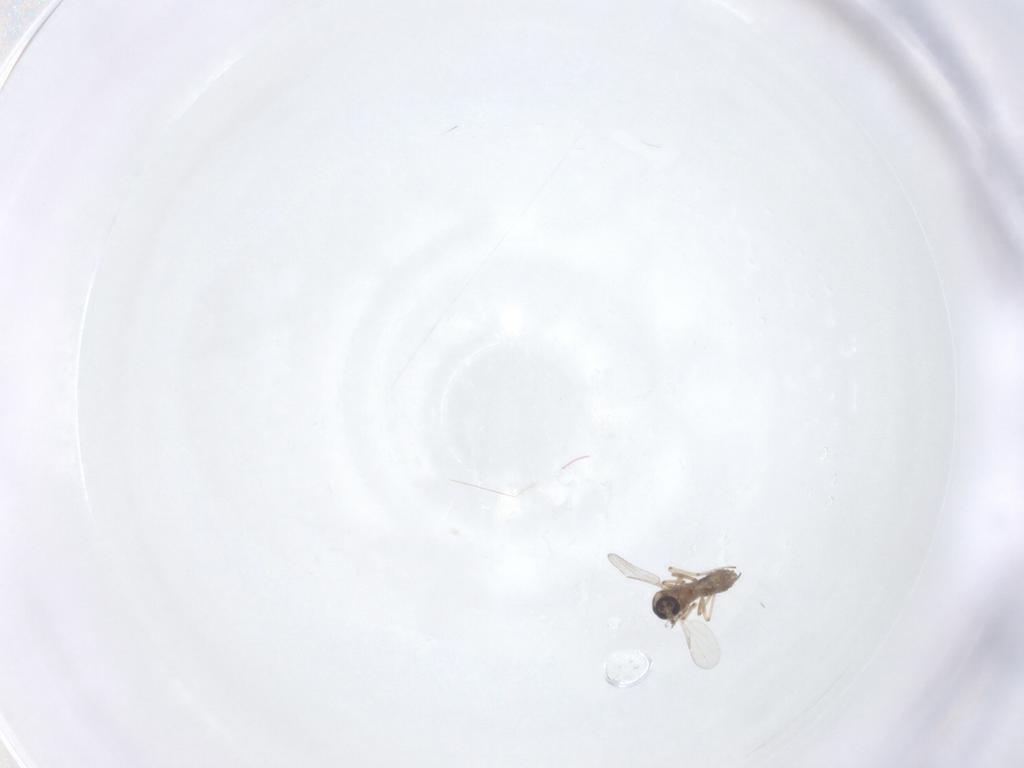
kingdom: Animalia
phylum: Arthropoda
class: Insecta
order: Diptera
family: Ceratopogonidae
